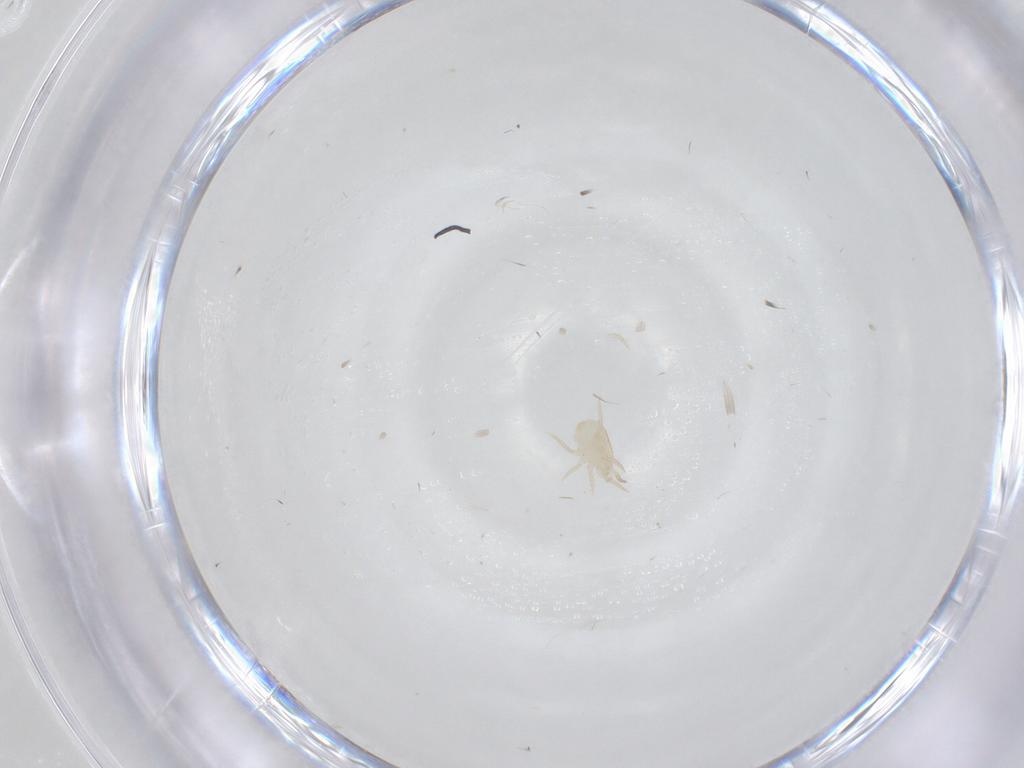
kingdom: Animalia
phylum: Arthropoda
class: Arachnida
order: Mesostigmata
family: Ameroseiidae
